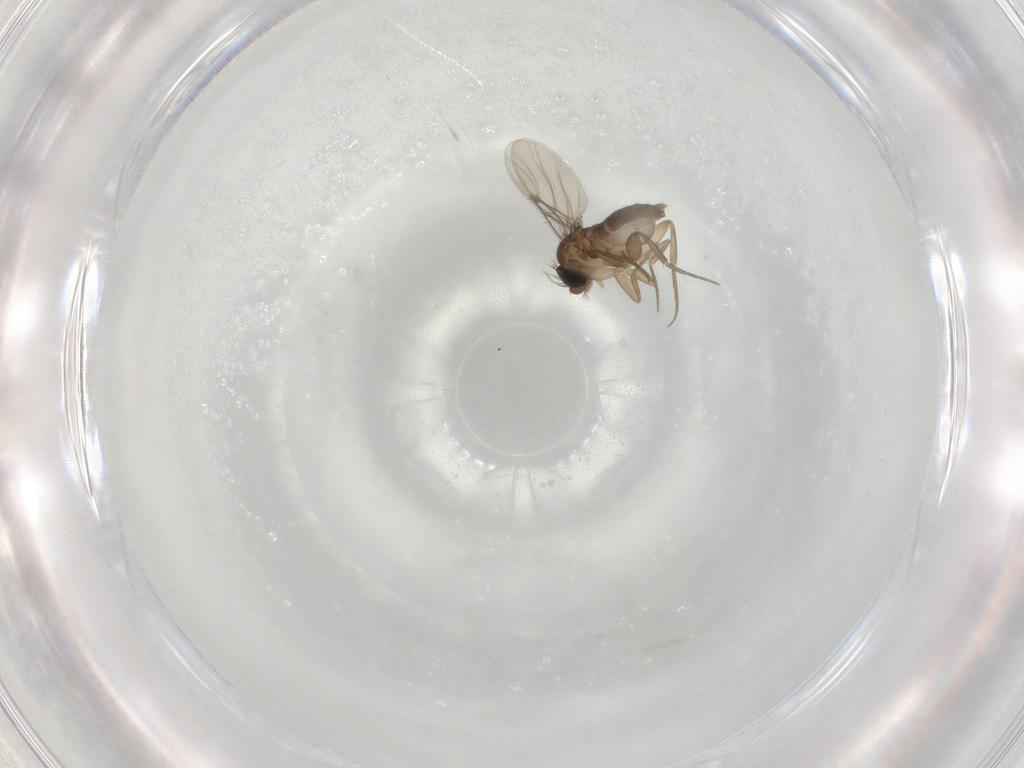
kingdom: Animalia
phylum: Arthropoda
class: Insecta
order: Diptera
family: Phoridae
